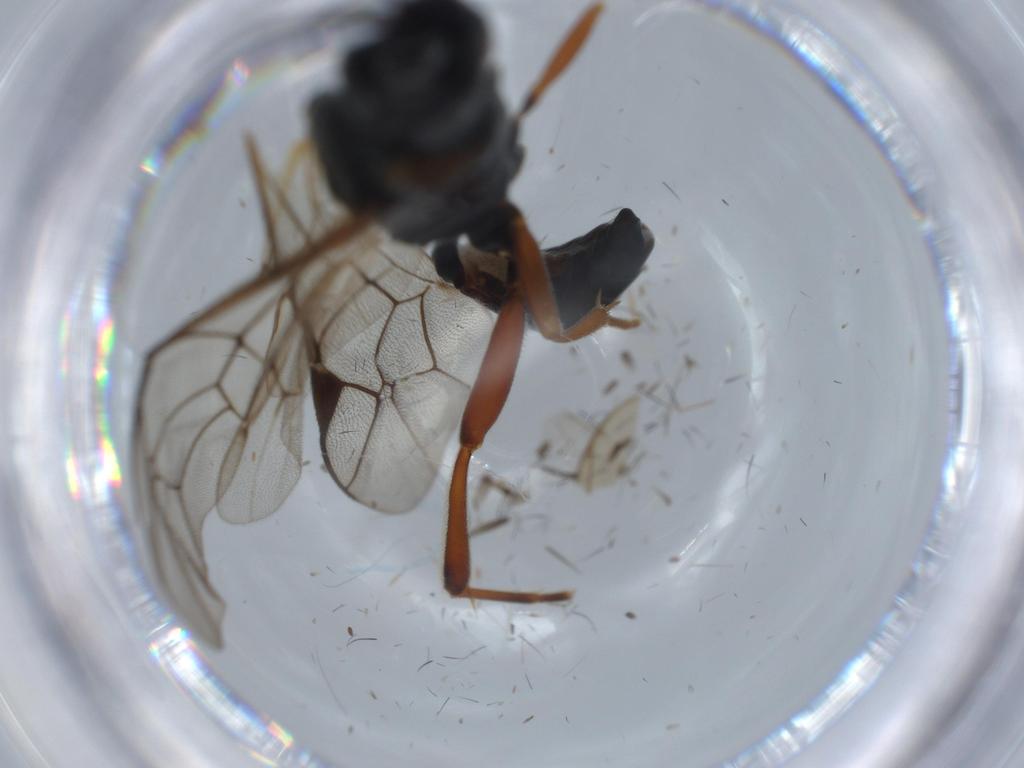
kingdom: Animalia
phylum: Arthropoda
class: Insecta
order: Hymenoptera
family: Ichneumonidae
